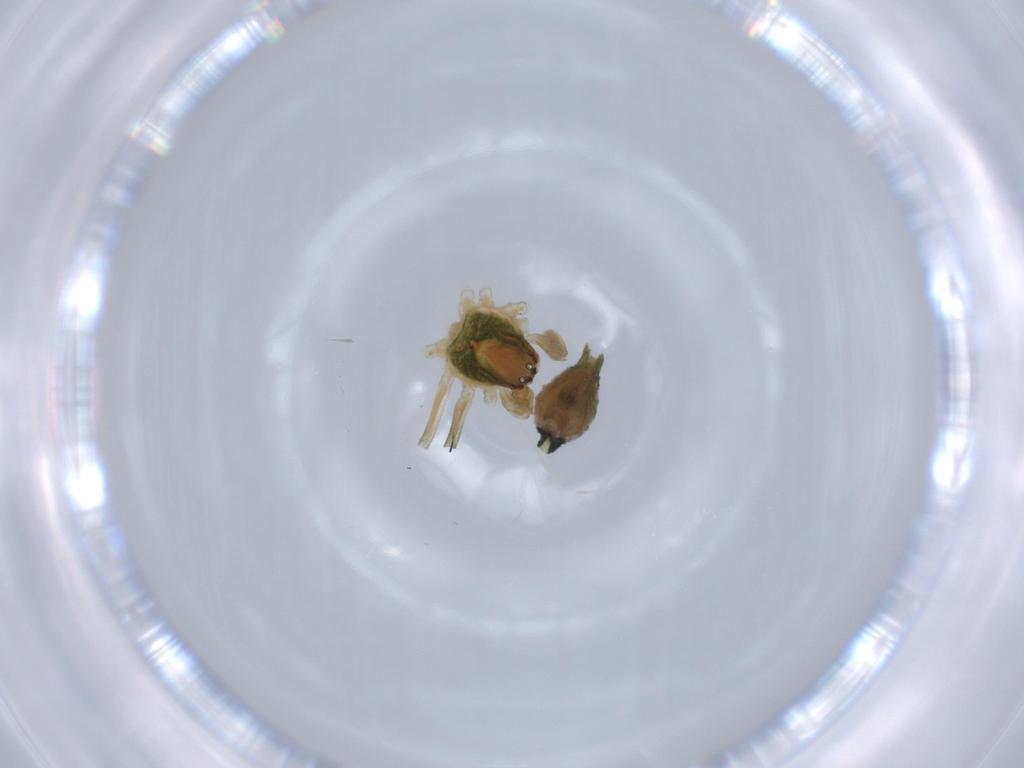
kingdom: Animalia
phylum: Arthropoda
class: Arachnida
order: Araneae
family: Dictynidae
